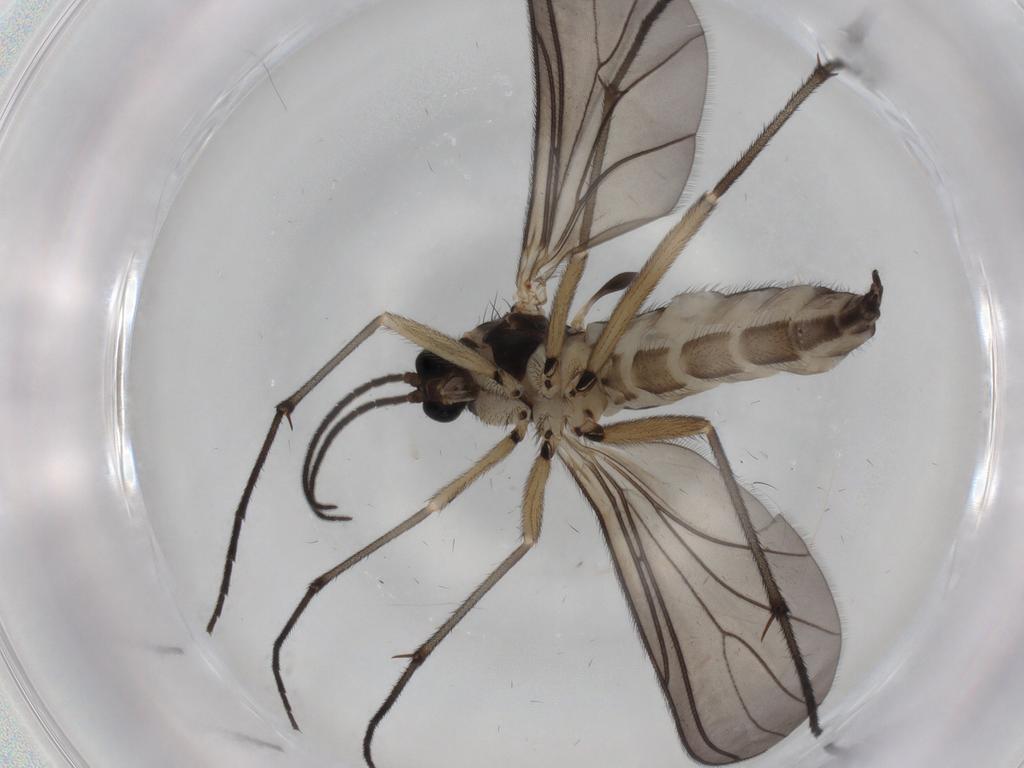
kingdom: Animalia
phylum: Arthropoda
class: Insecta
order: Diptera
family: Sciaridae
